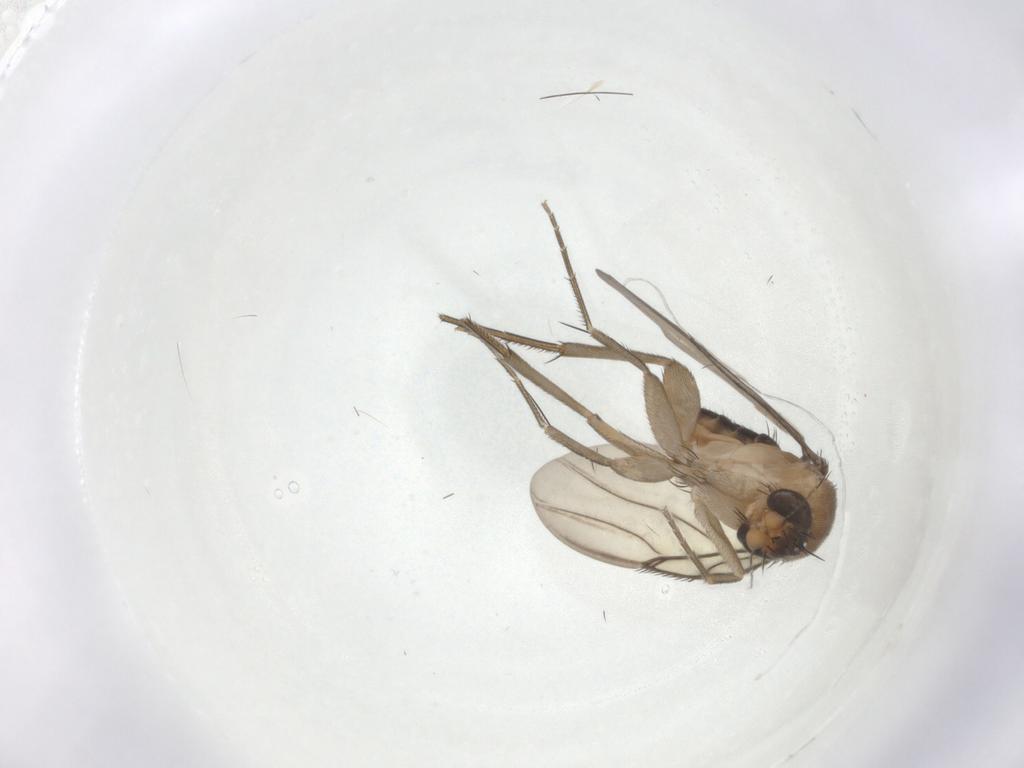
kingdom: Animalia
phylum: Arthropoda
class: Insecta
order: Diptera
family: Phoridae
